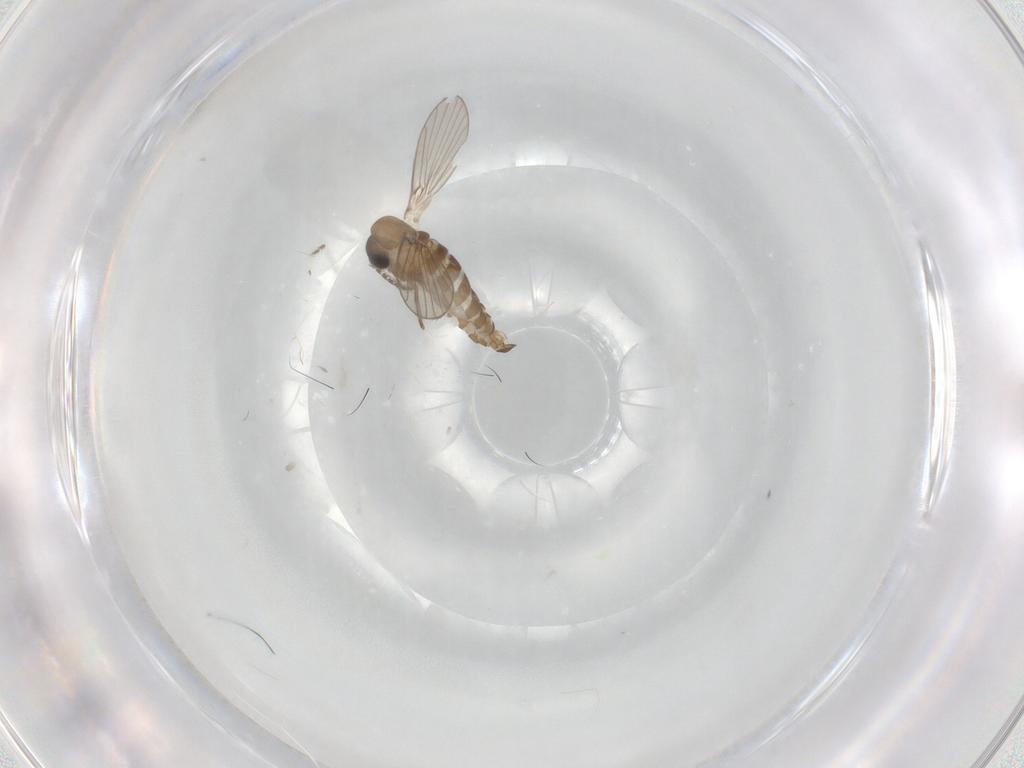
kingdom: Animalia
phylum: Arthropoda
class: Insecta
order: Diptera
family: Psychodidae
